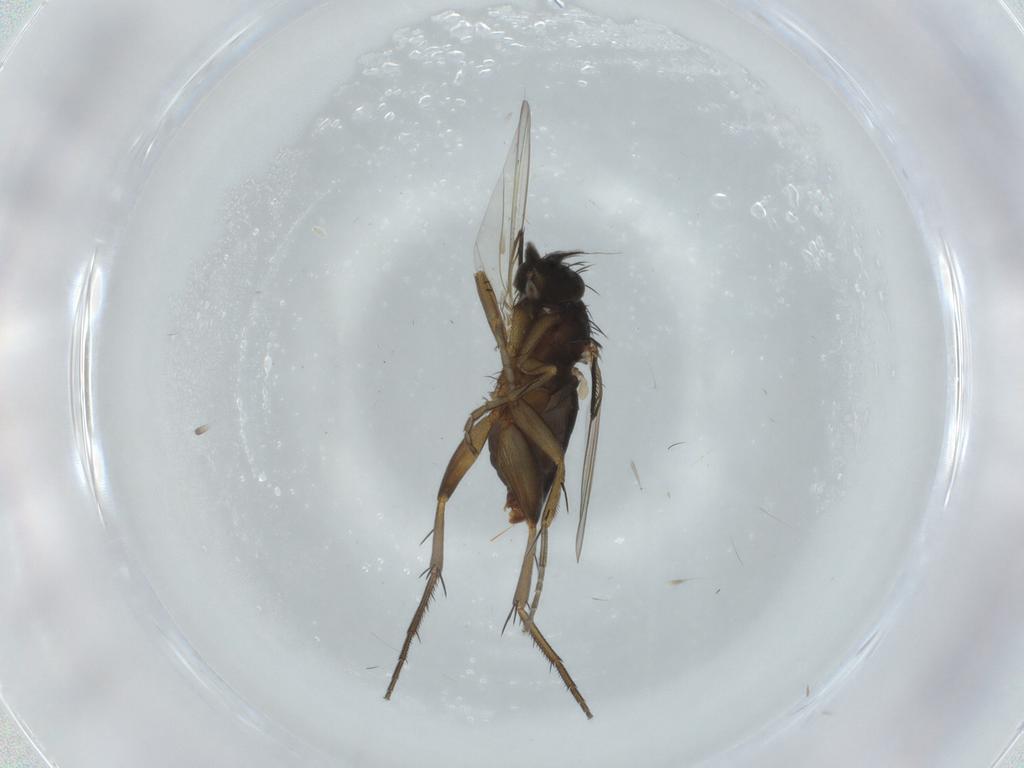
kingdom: Animalia
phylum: Arthropoda
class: Insecta
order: Diptera
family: Phoridae
